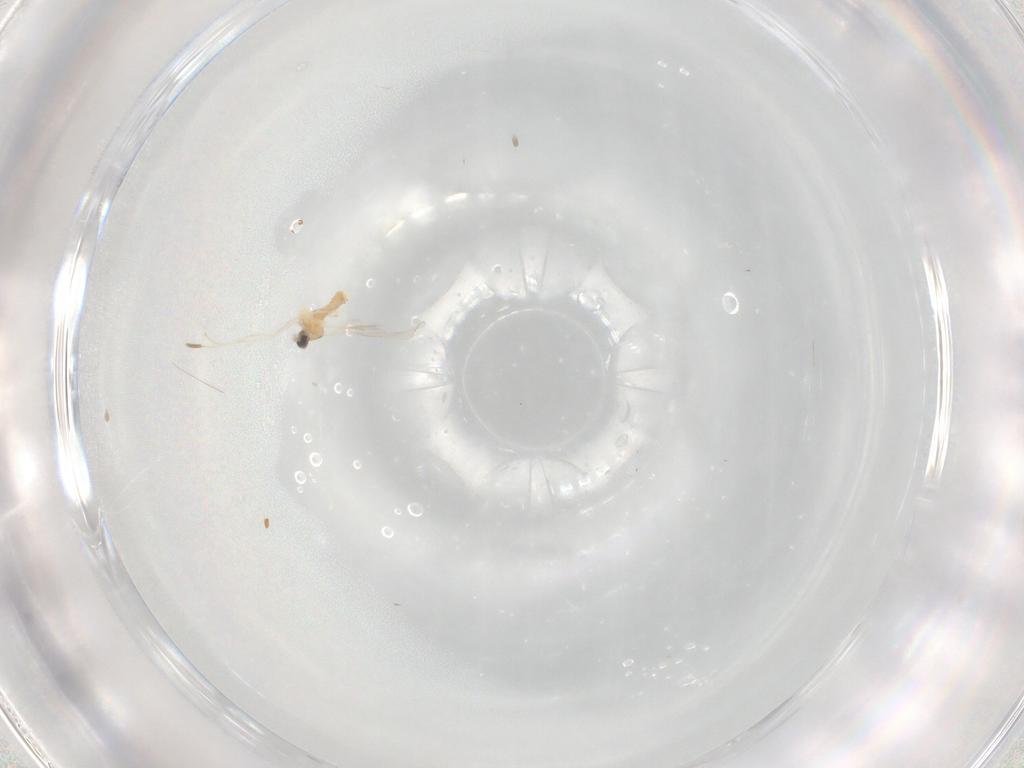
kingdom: Animalia
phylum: Arthropoda
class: Insecta
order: Diptera
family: Cecidomyiidae
